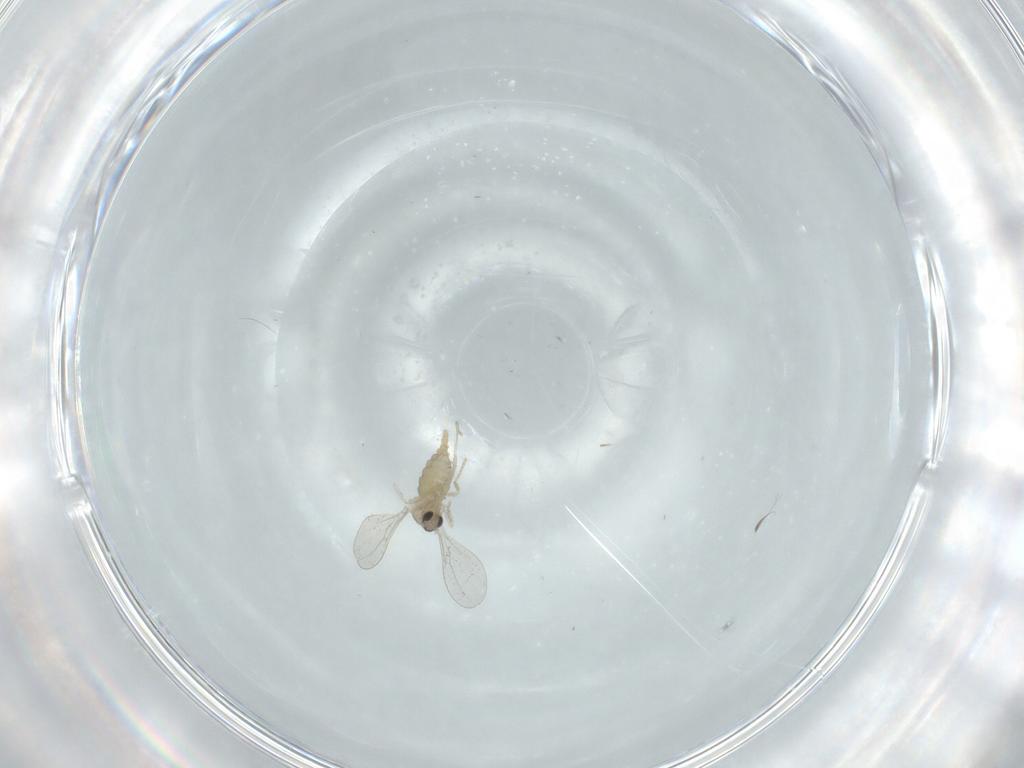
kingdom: Animalia
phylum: Arthropoda
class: Insecta
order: Diptera
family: Cecidomyiidae
